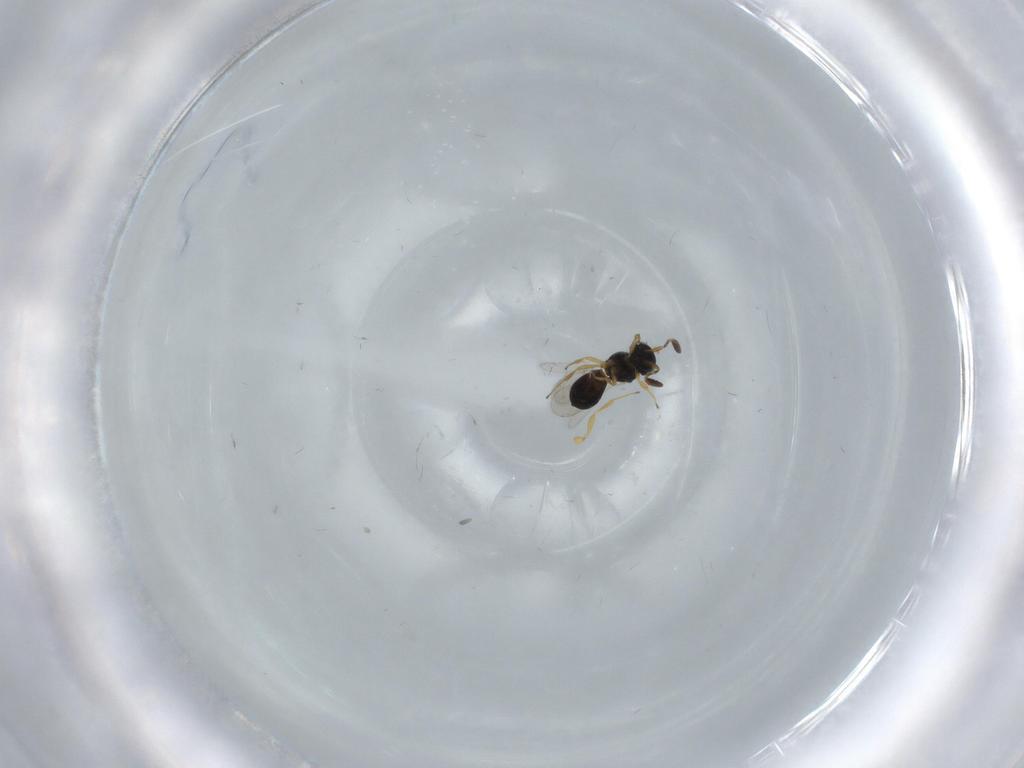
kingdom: Animalia
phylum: Arthropoda
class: Insecta
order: Hymenoptera
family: Scelionidae
